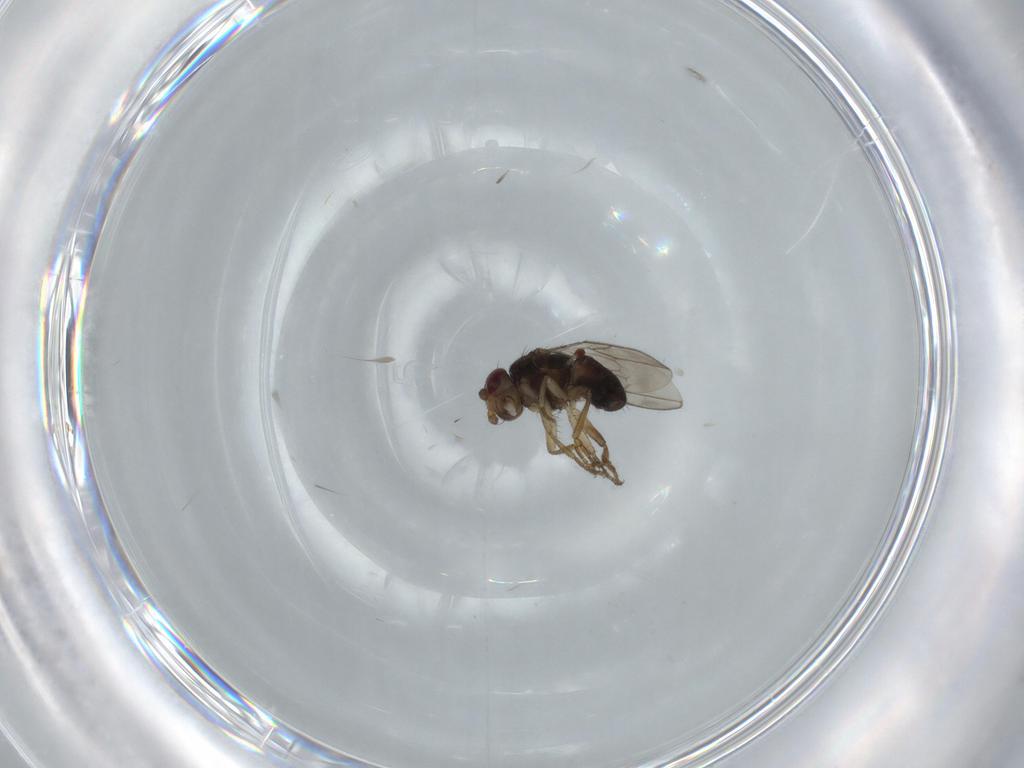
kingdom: Animalia
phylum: Arthropoda
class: Insecta
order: Diptera
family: Sphaeroceridae
